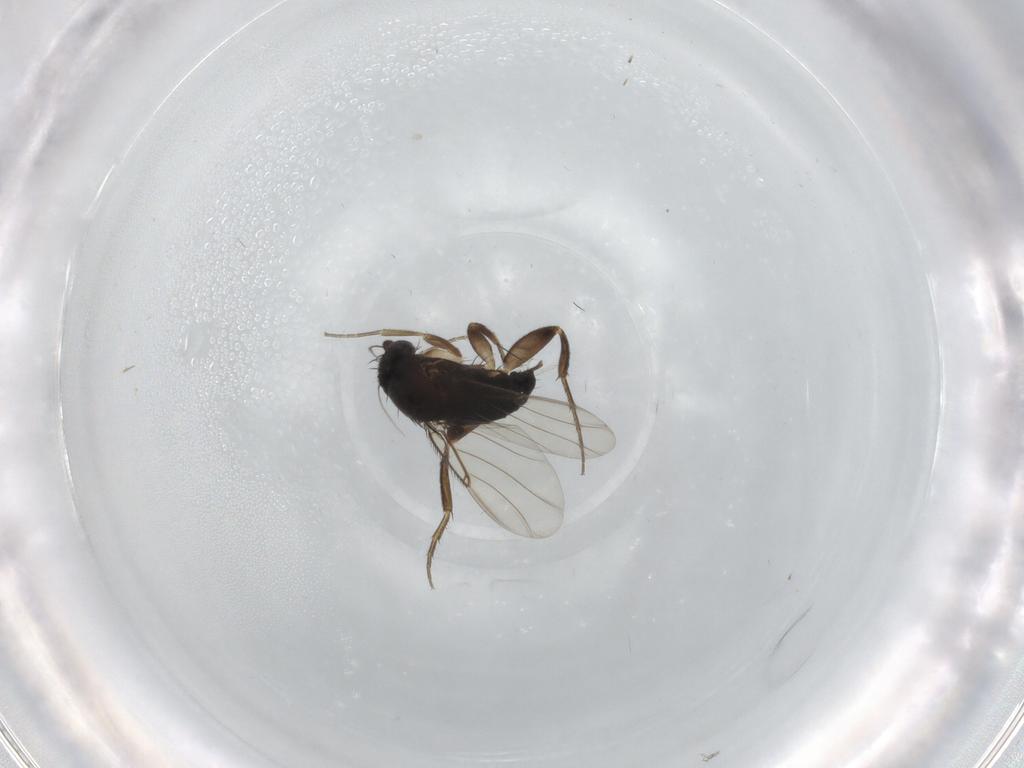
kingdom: Animalia
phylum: Arthropoda
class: Insecta
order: Diptera
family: Phoridae
